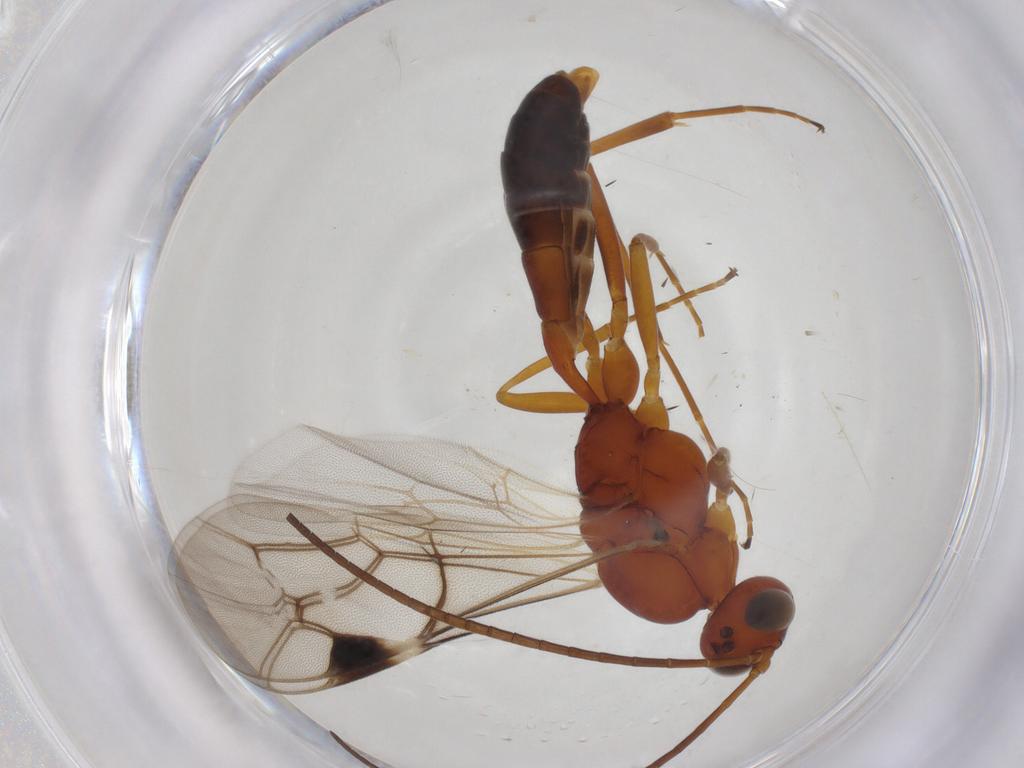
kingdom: Animalia
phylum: Arthropoda
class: Insecta
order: Hymenoptera
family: Ichneumonidae
